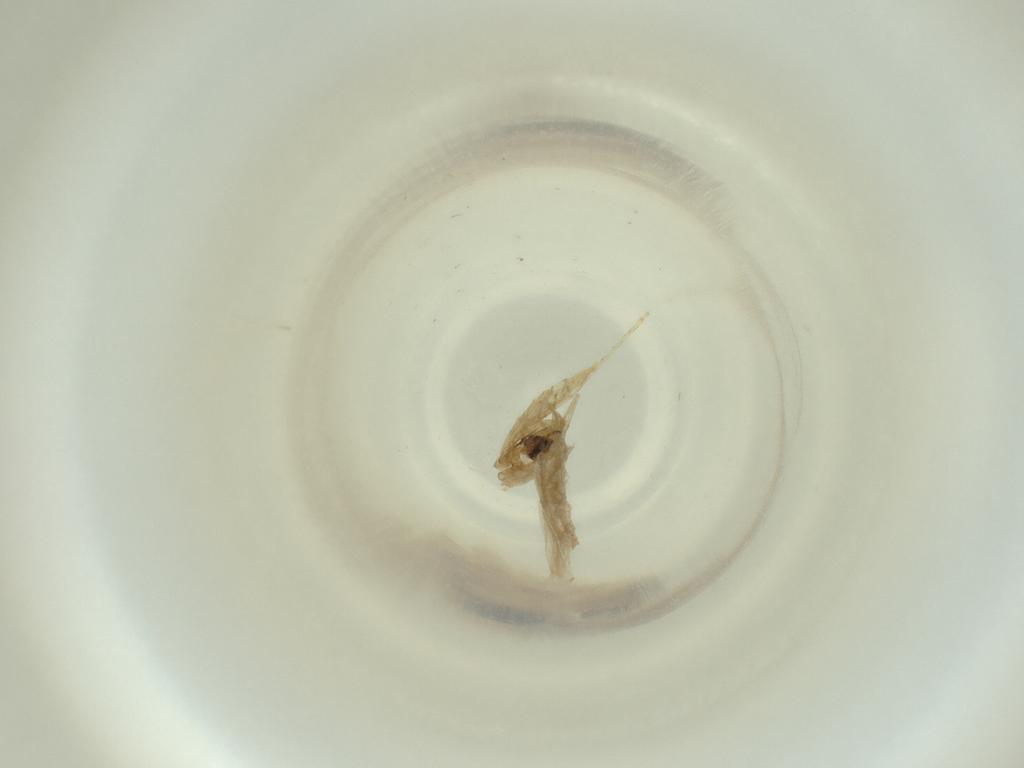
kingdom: Animalia
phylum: Arthropoda
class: Insecta
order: Diptera
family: Cecidomyiidae
